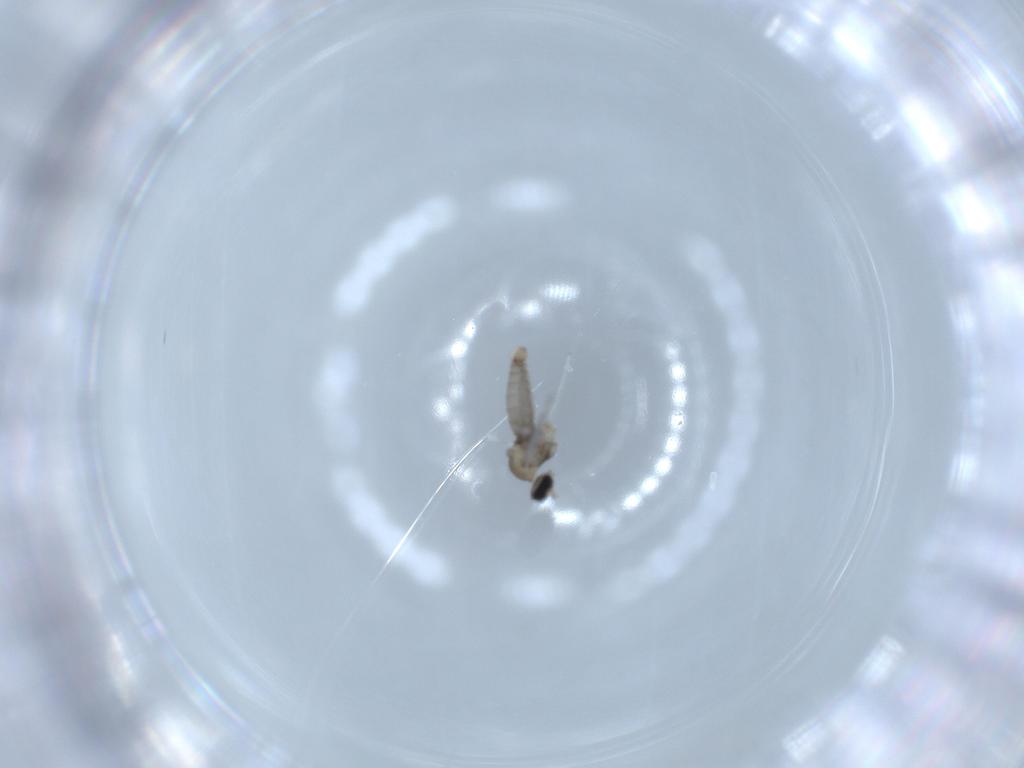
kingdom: Animalia
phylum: Arthropoda
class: Insecta
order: Diptera
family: Cecidomyiidae
